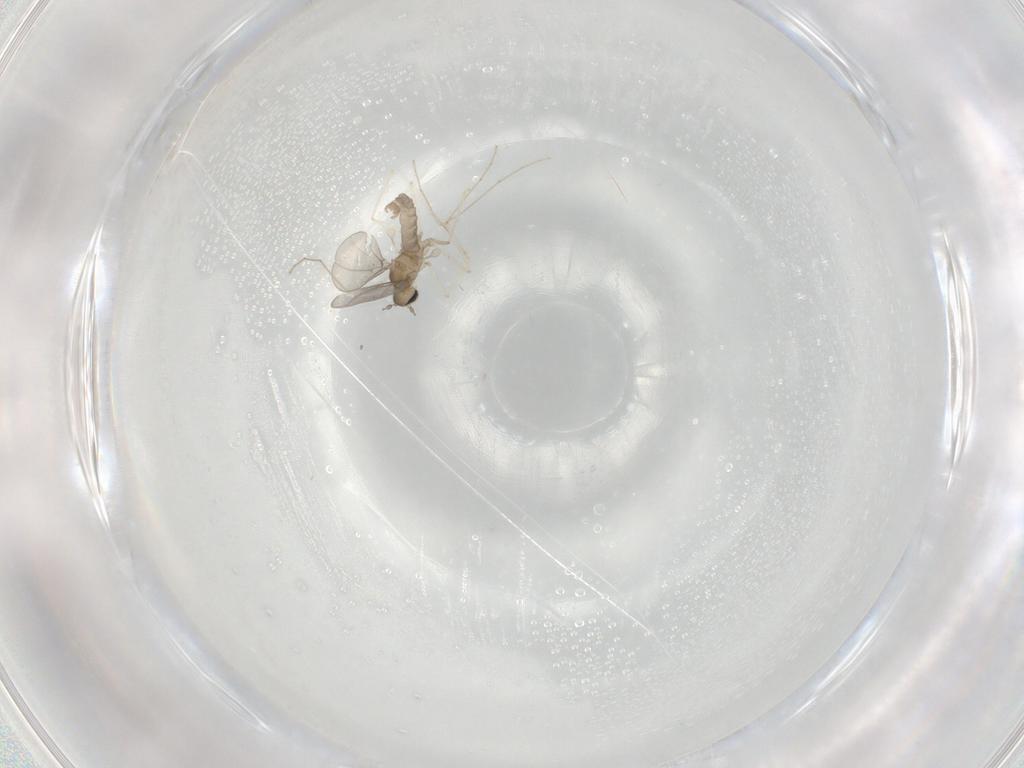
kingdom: Animalia
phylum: Arthropoda
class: Insecta
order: Diptera
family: Cecidomyiidae
